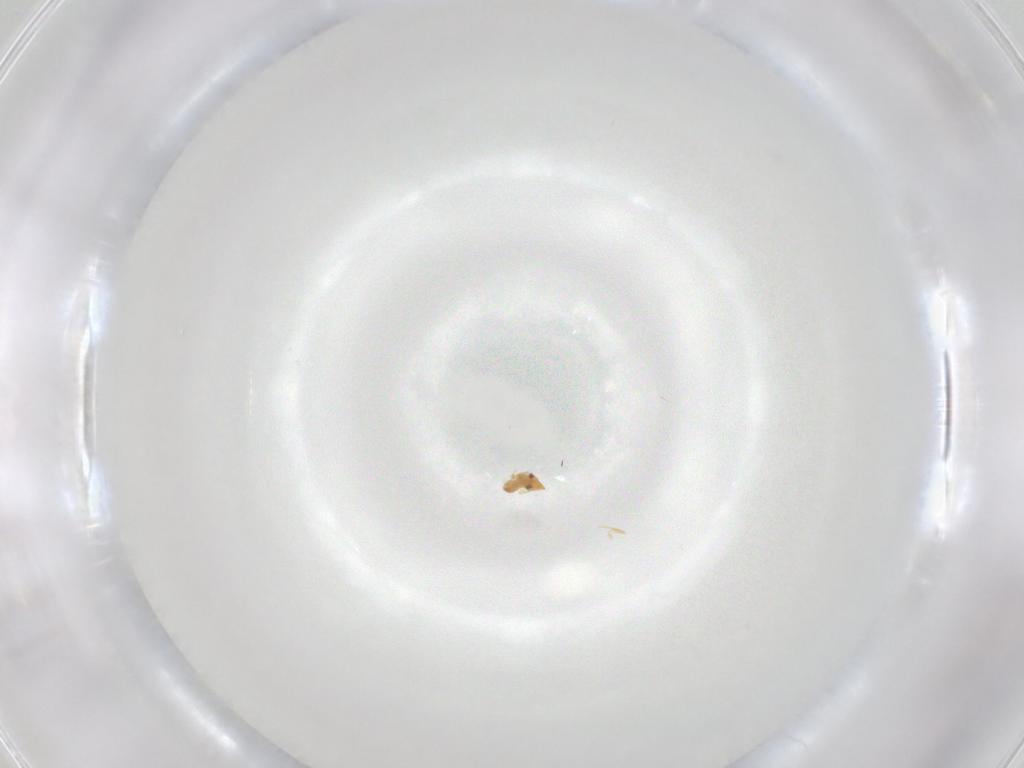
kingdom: Animalia
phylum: Arthropoda
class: Insecta
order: Hymenoptera
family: Mymaridae
